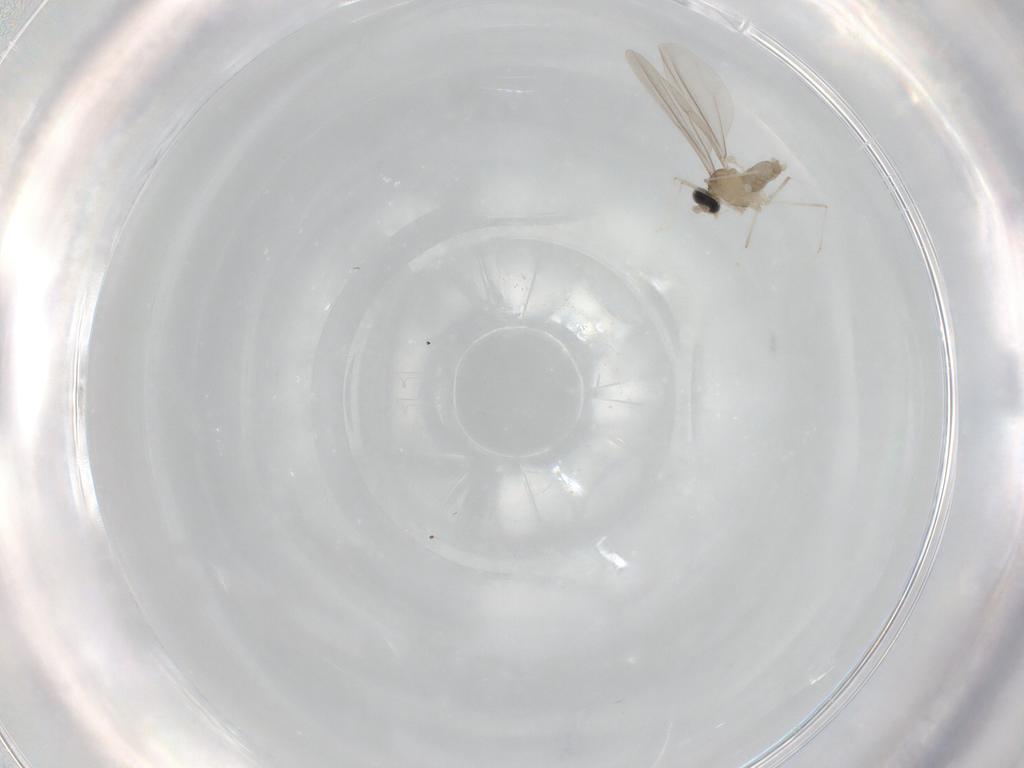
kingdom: Animalia
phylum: Arthropoda
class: Insecta
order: Diptera
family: Cecidomyiidae
